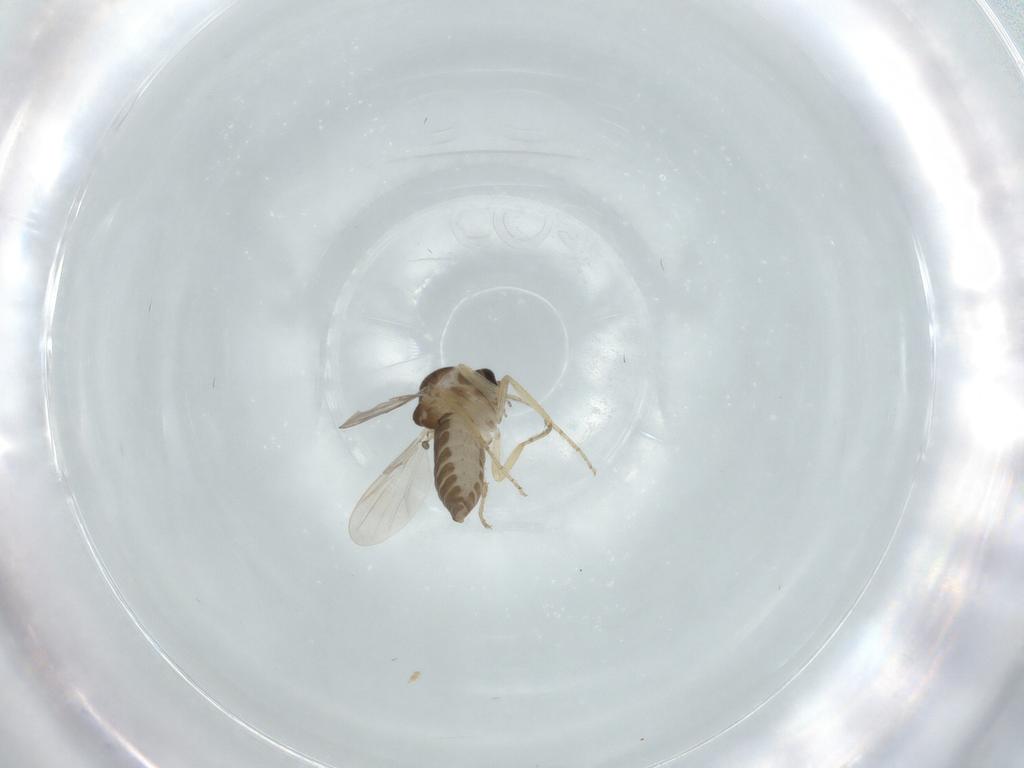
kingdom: Animalia
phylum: Arthropoda
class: Insecta
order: Diptera
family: Ceratopogonidae
